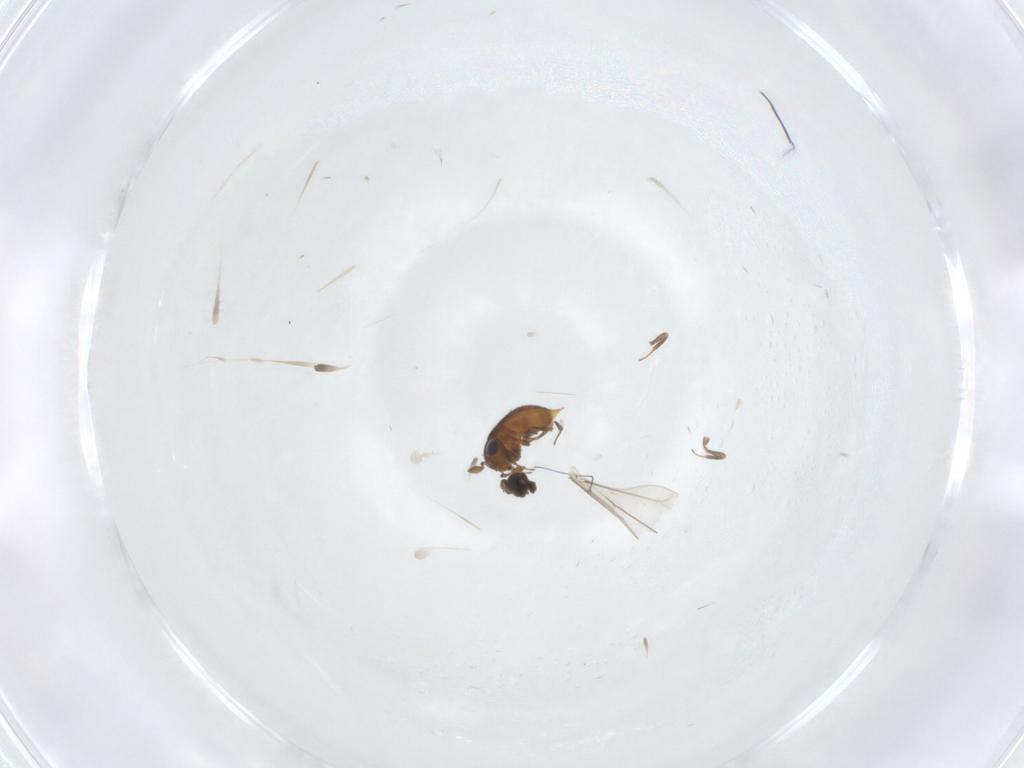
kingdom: Animalia
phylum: Arthropoda
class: Insecta
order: Hymenoptera
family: Scelionidae
